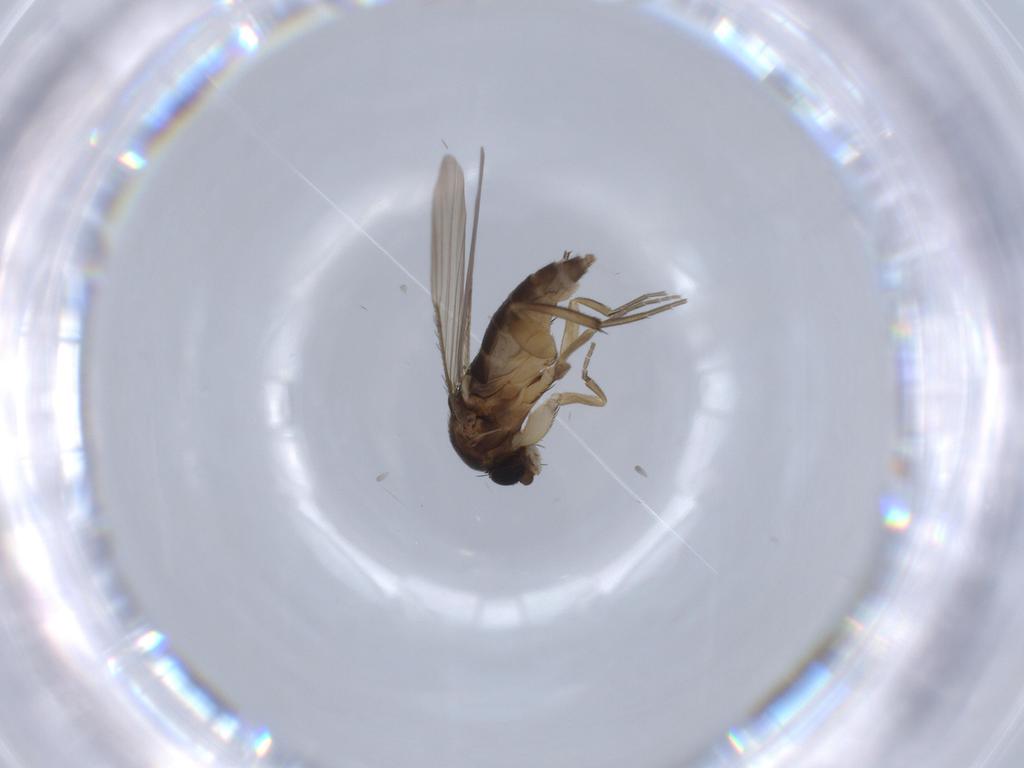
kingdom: Animalia
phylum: Arthropoda
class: Insecta
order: Diptera
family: Phoridae
